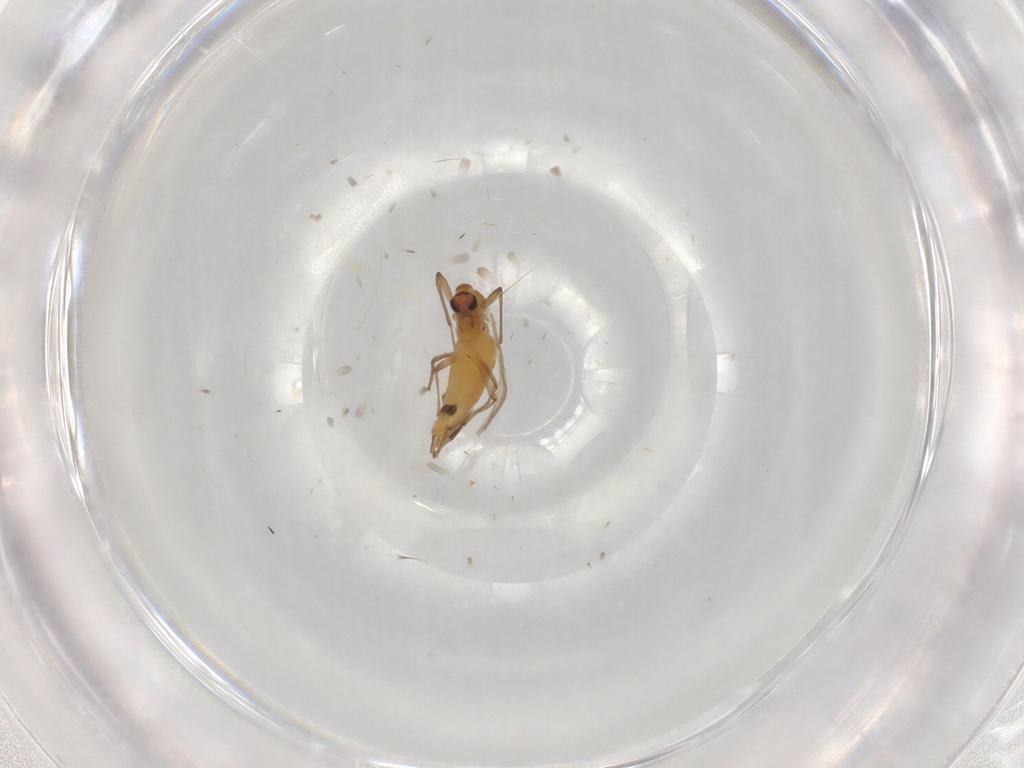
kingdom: Animalia
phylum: Arthropoda
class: Insecta
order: Diptera
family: Chironomidae
